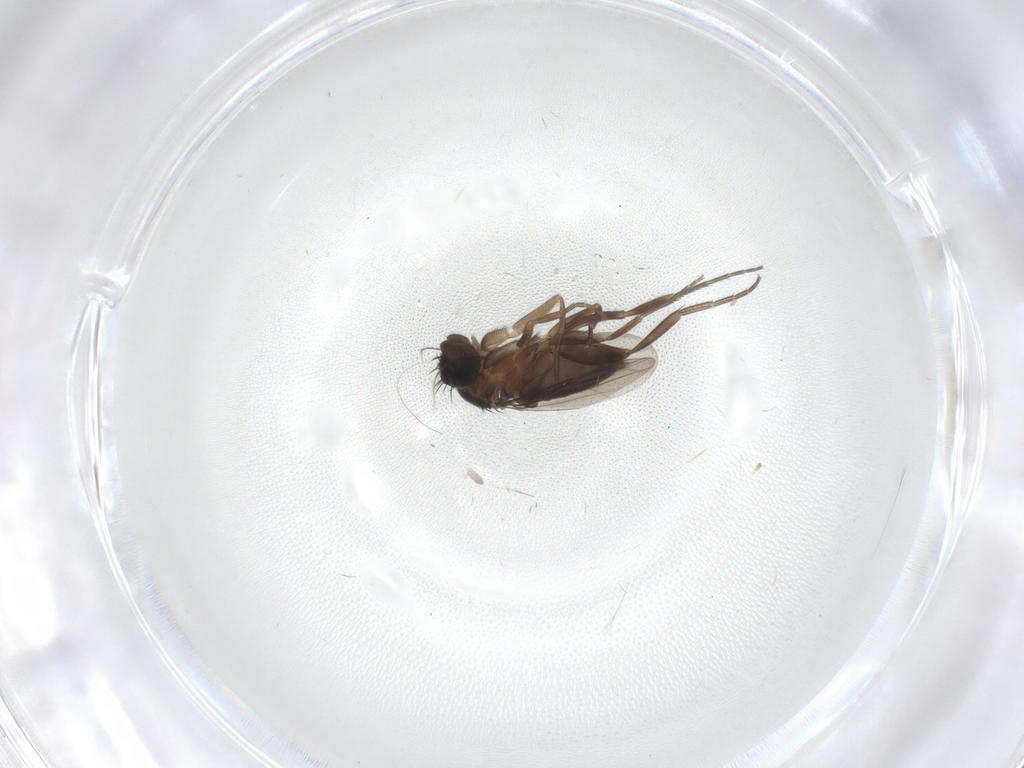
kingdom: Animalia
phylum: Arthropoda
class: Insecta
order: Diptera
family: Phoridae
